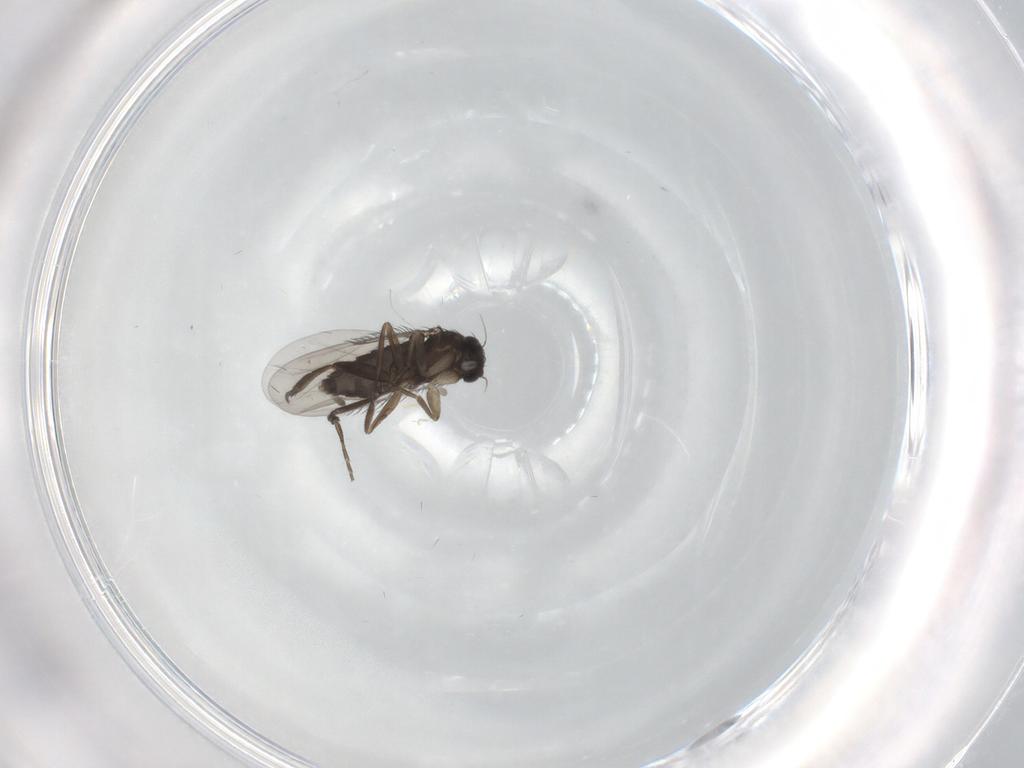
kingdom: Animalia
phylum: Arthropoda
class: Insecta
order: Diptera
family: Phoridae
